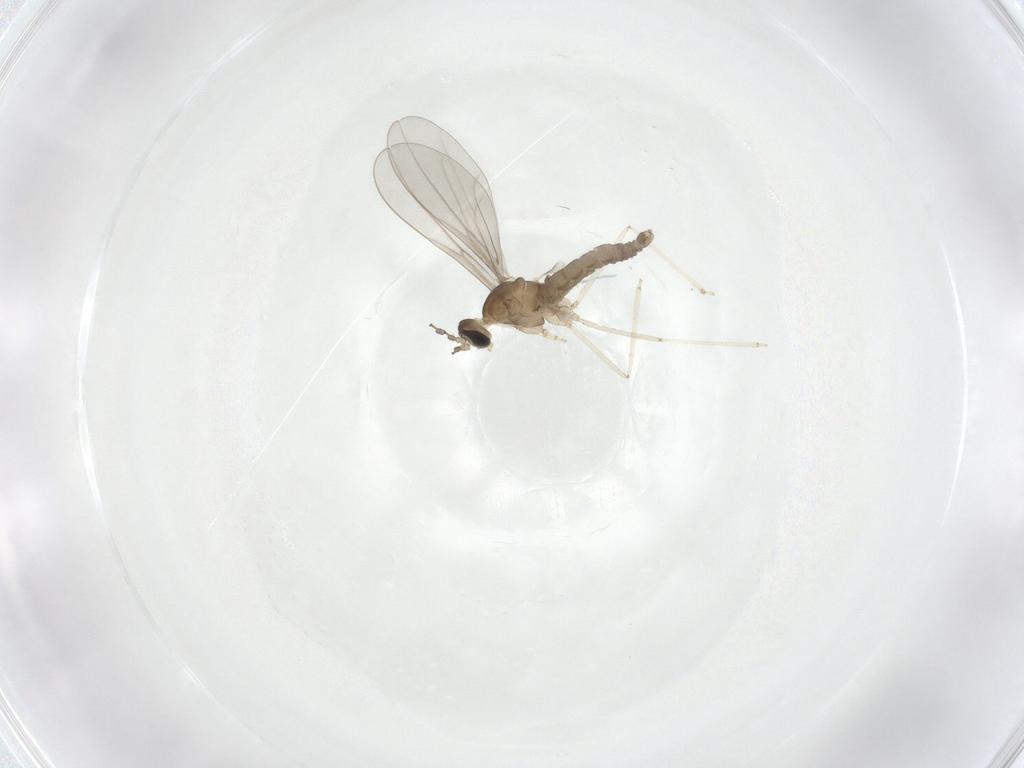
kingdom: Animalia
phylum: Arthropoda
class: Insecta
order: Diptera
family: Cecidomyiidae
